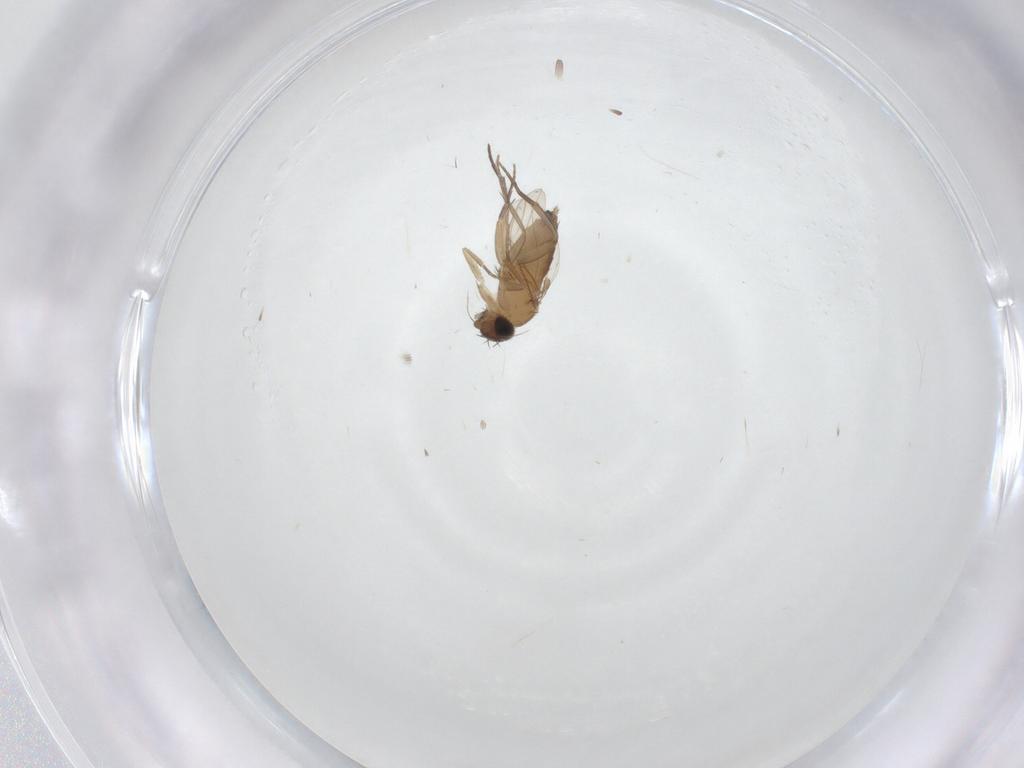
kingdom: Animalia
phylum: Arthropoda
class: Insecta
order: Diptera
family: Phoridae
